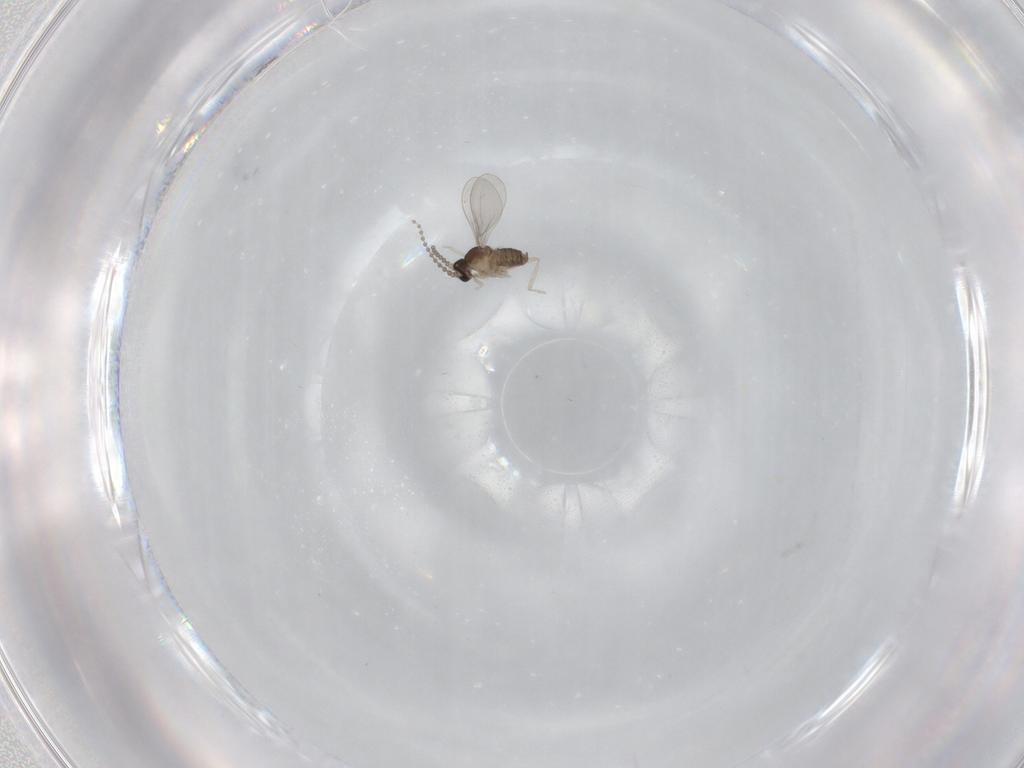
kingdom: Animalia
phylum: Arthropoda
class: Insecta
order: Diptera
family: Cecidomyiidae
